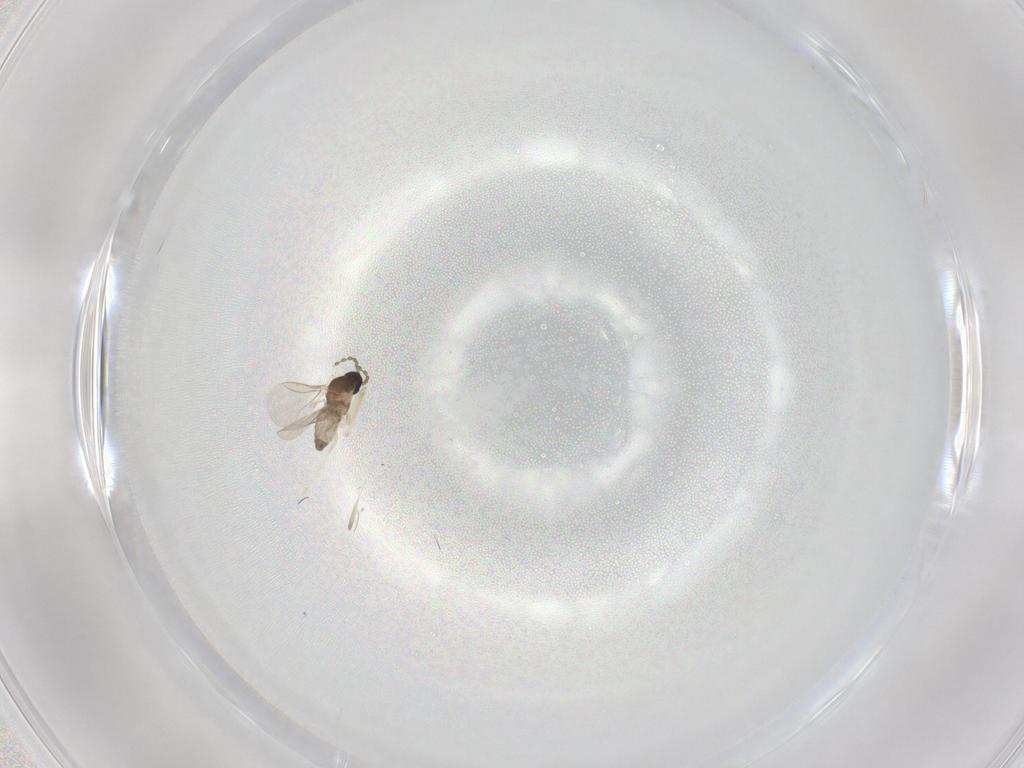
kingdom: Animalia
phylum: Arthropoda
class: Insecta
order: Diptera
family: Cecidomyiidae
